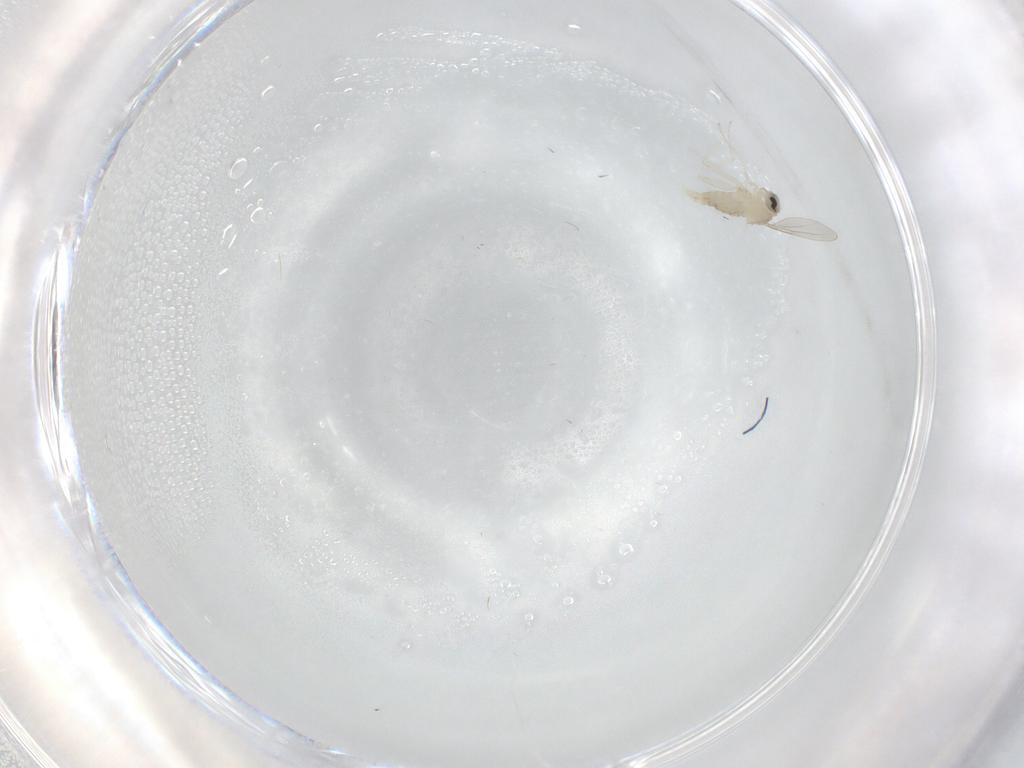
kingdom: Animalia
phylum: Arthropoda
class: Insecta
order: Diptera
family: Cecidomyiidae
